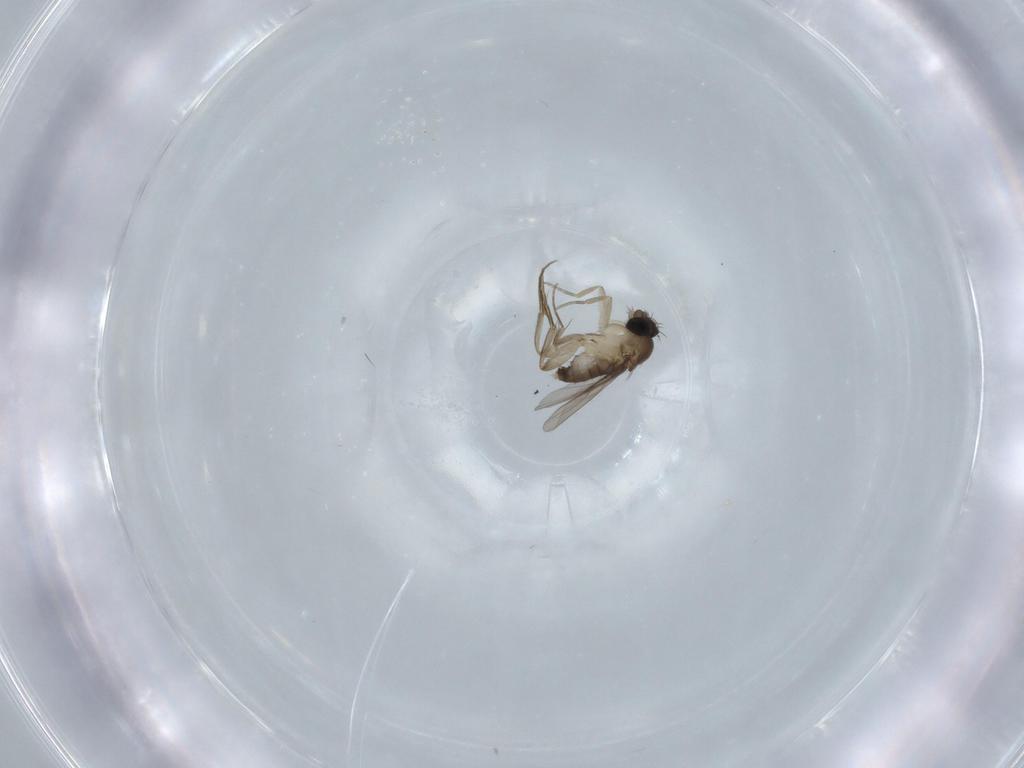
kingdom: Animalia
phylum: Arthropoda
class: Insecta
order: Diptera
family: Phoridae
